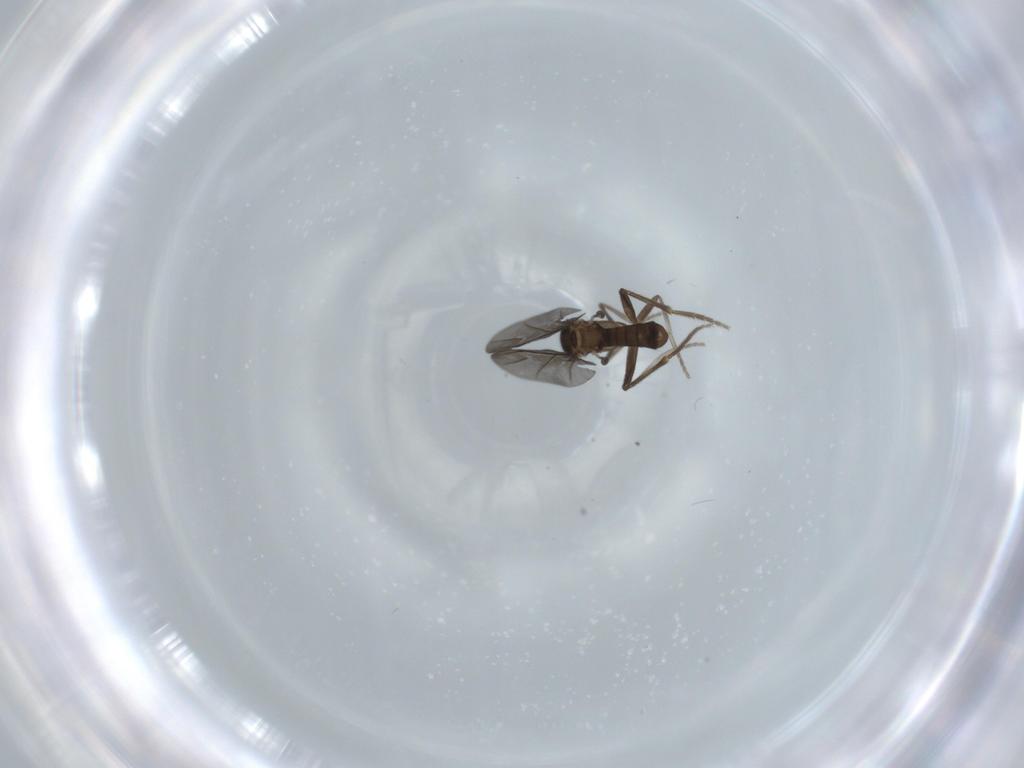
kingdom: Animalia
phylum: Arthropoda
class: Insecta
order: Diptera
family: Phoridae
